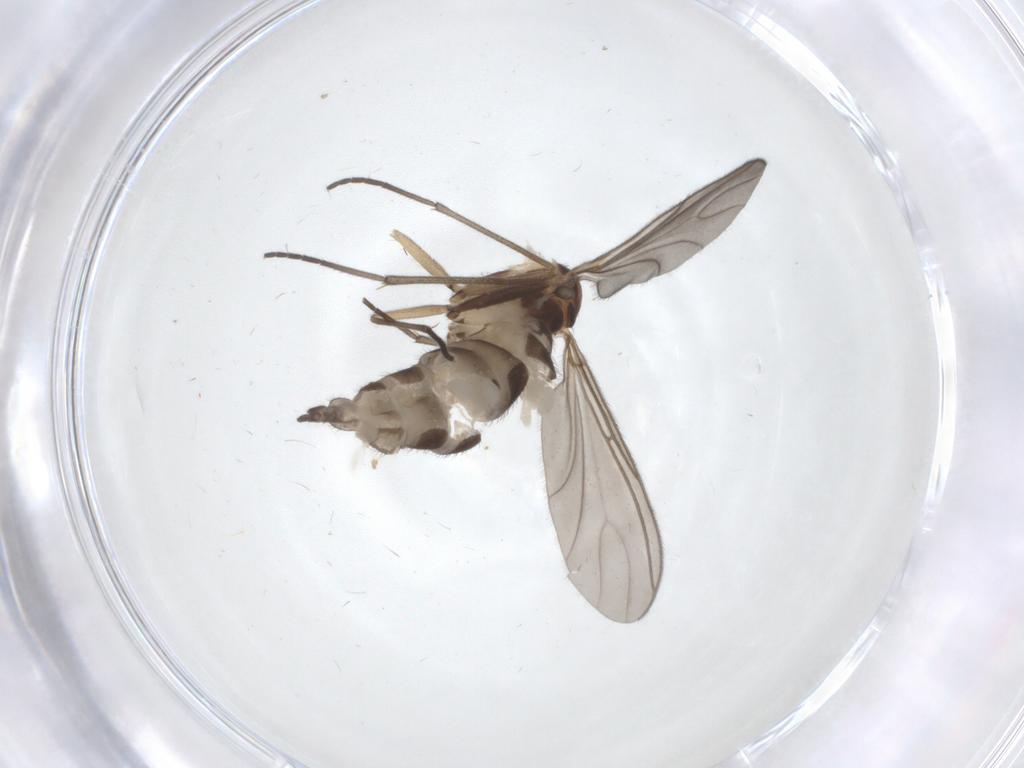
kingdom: Animalia
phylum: Arthropoda
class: Insecta
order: Diptera
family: Sciaridae
